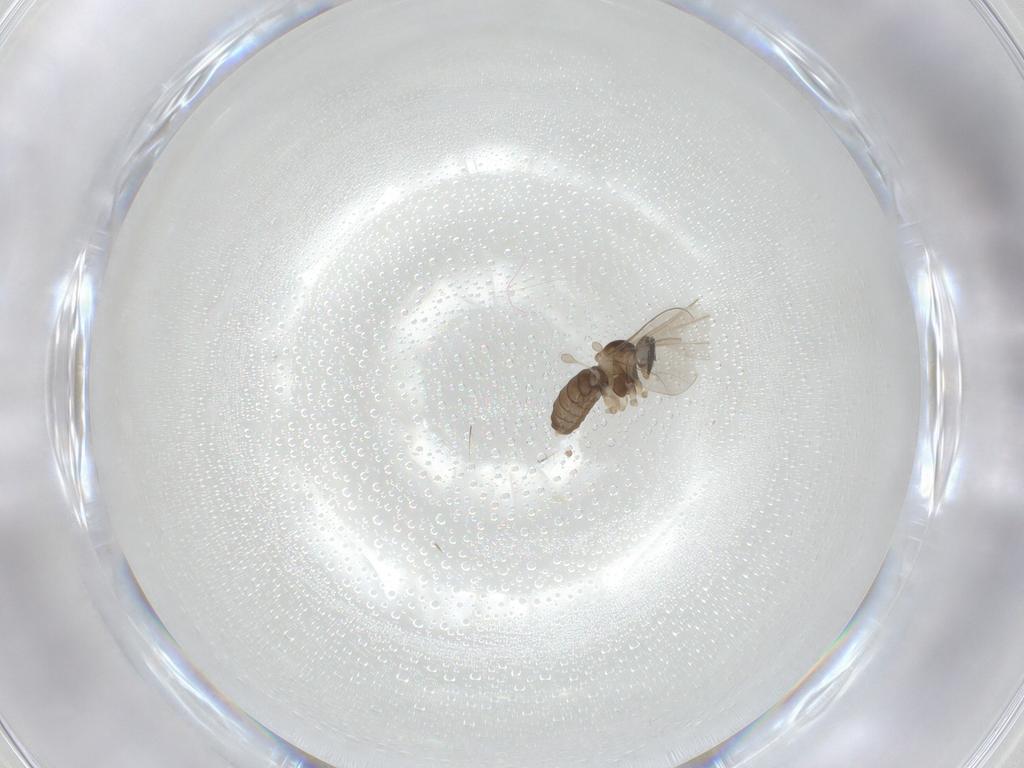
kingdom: Animalia
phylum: Arthropoda
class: Insecta
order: Diptera
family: Cecidomyiidae
